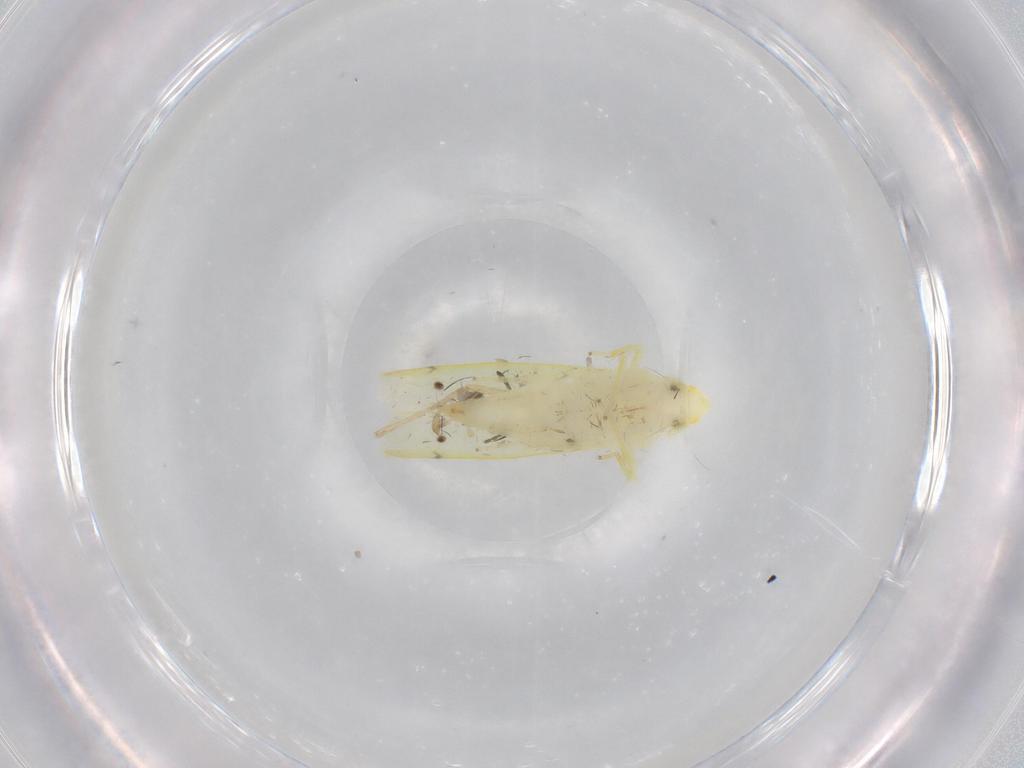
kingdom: Animalia
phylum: Arthropoda
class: Insecta
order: Hemiptera
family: Cicadellidae
